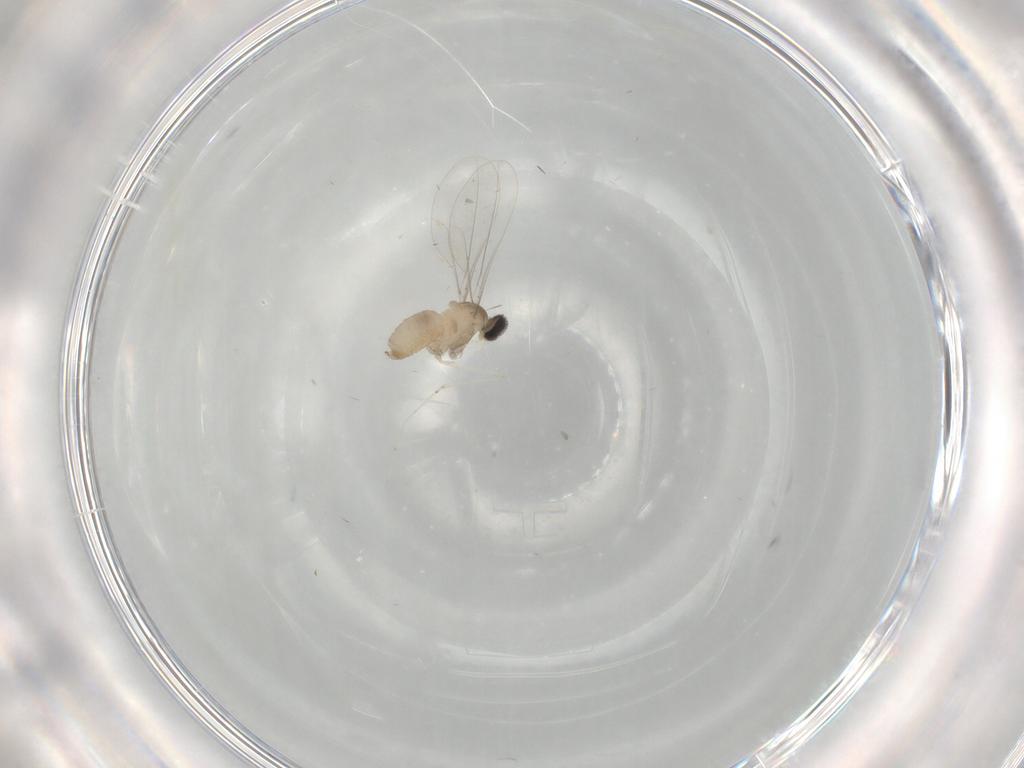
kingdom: Animalia
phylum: Arthropoda
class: Insecta
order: Diptera
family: Cecidomyiidae
